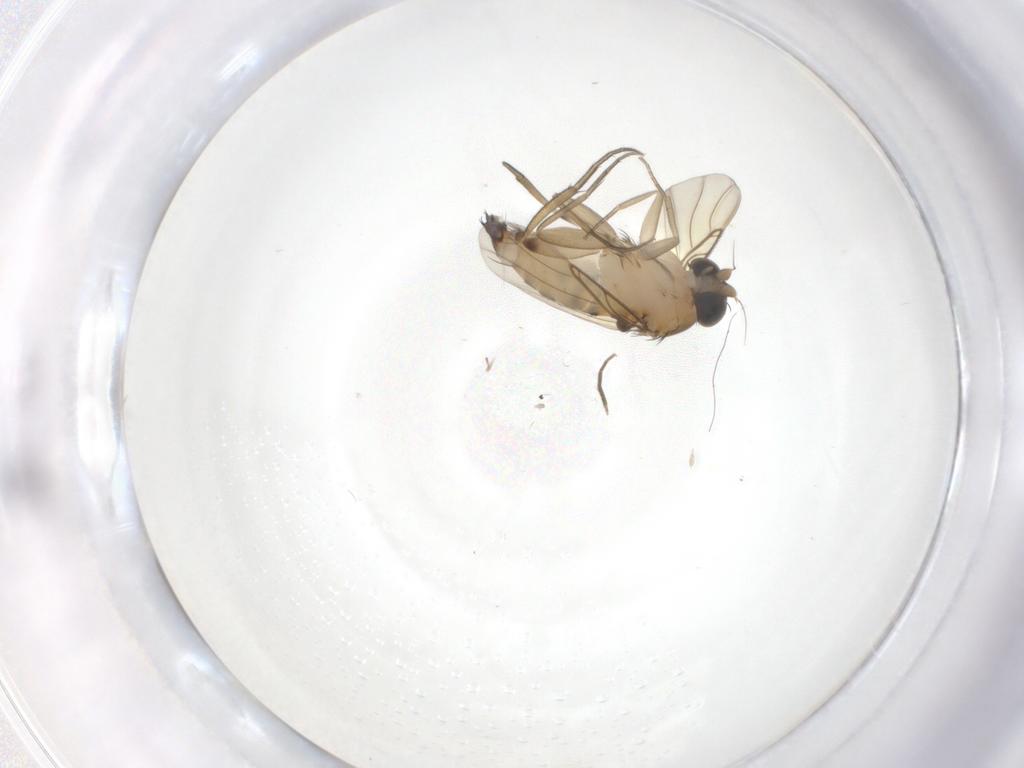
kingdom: Animalia
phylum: Arthropoda
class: Insecta
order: Diptera
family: Phoridae
